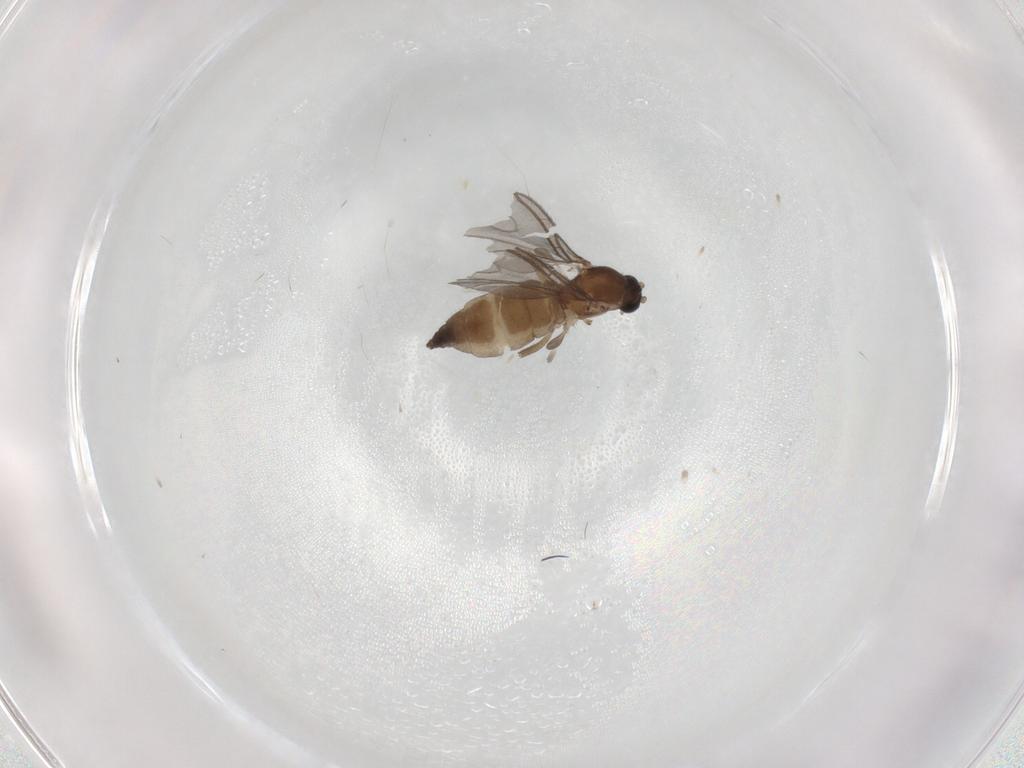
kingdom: Animalia
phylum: Arthropoda
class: Insecta
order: Diptera
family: Sciaridae
